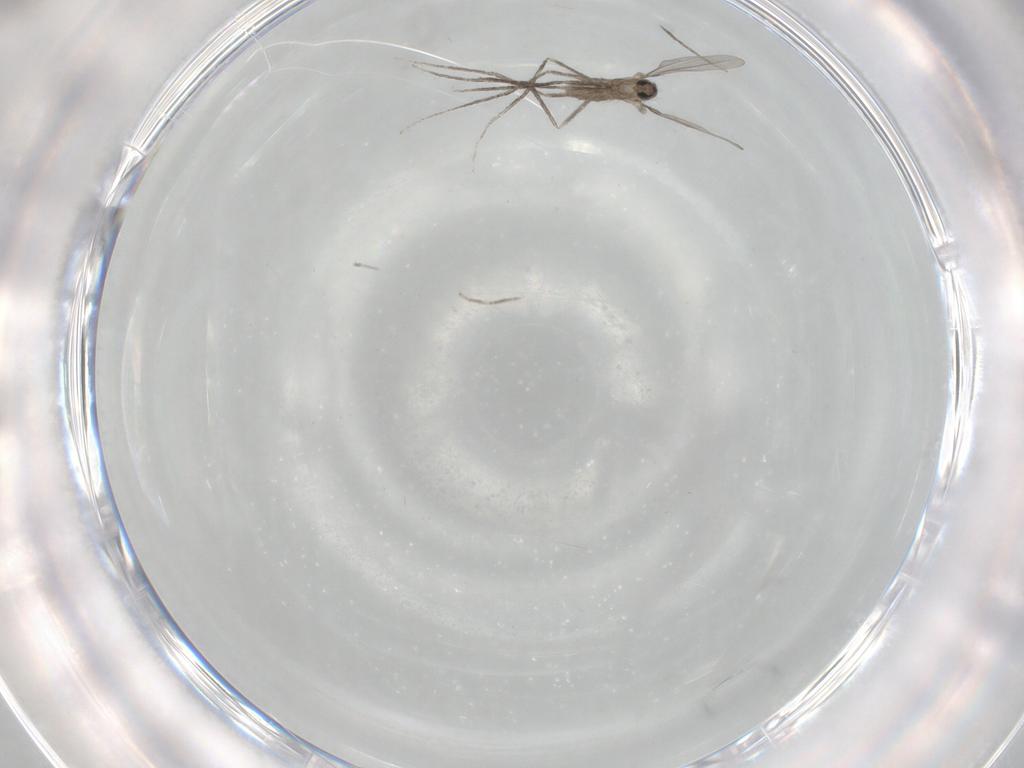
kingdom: Animalia
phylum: Arthropoda
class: Insecta
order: Diptera
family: Cecidomyiidae
